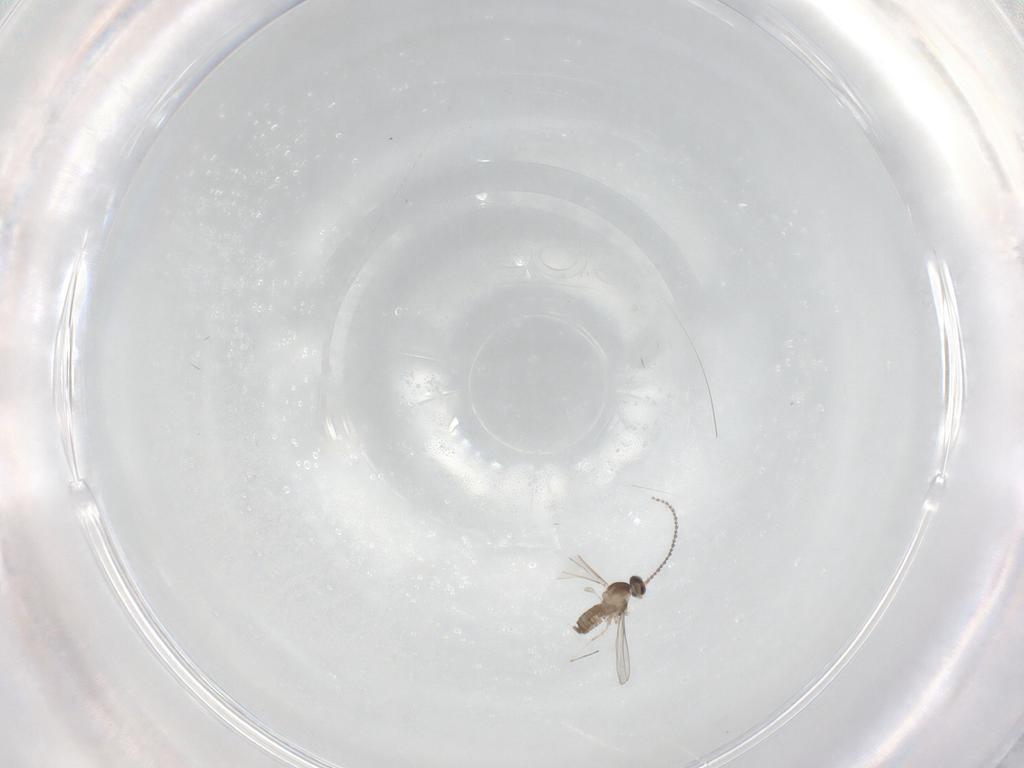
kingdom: Animalia
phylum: Arthropoda
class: Insecta
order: Diptera
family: Cecidomyiidae
